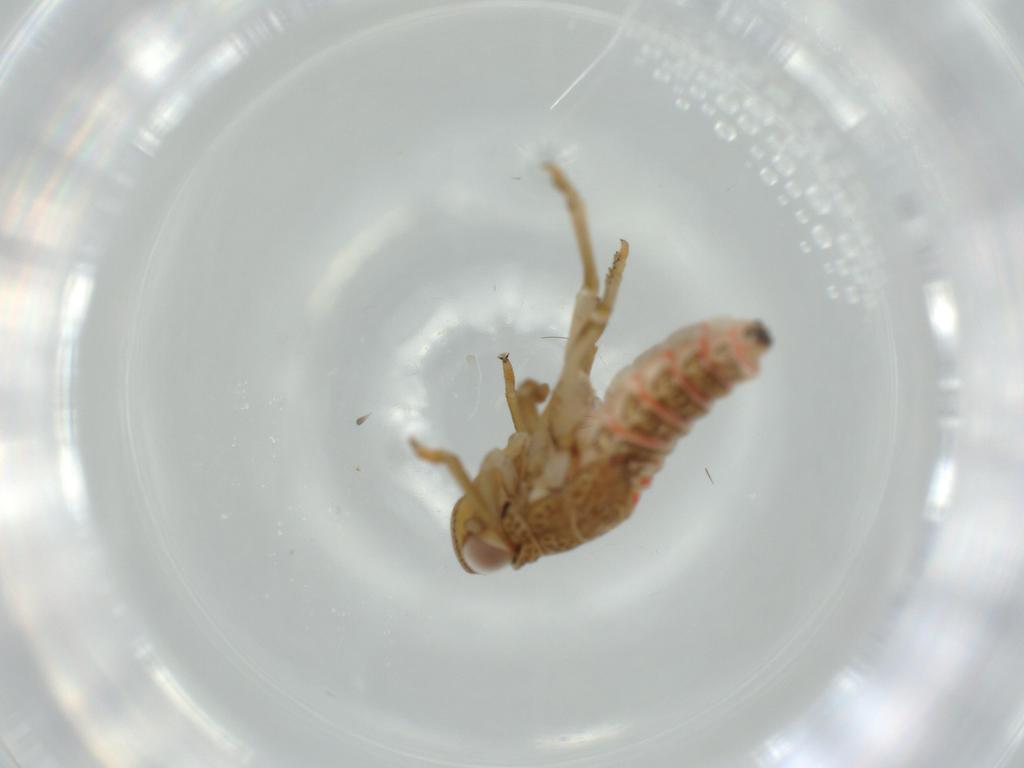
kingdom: Animalia
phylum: Arthropoda
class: Insecta
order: Hemiptera
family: Issidae
